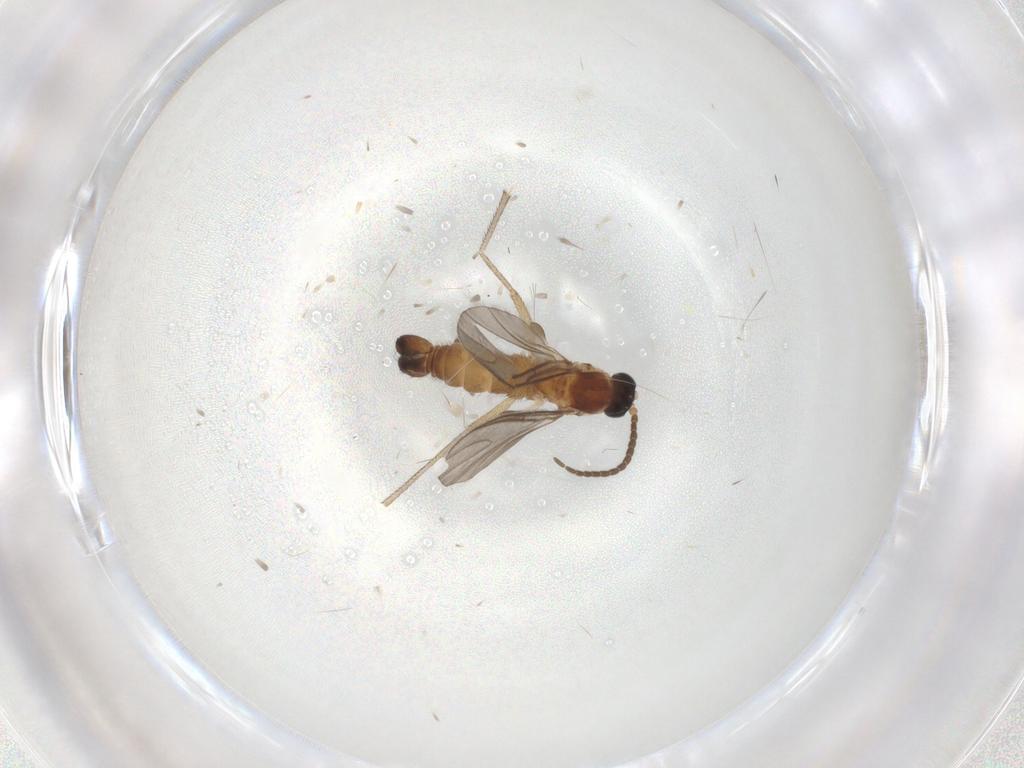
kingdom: Animalia
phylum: Arthropoda
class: Insecta
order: Diptera
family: Sciaridae
